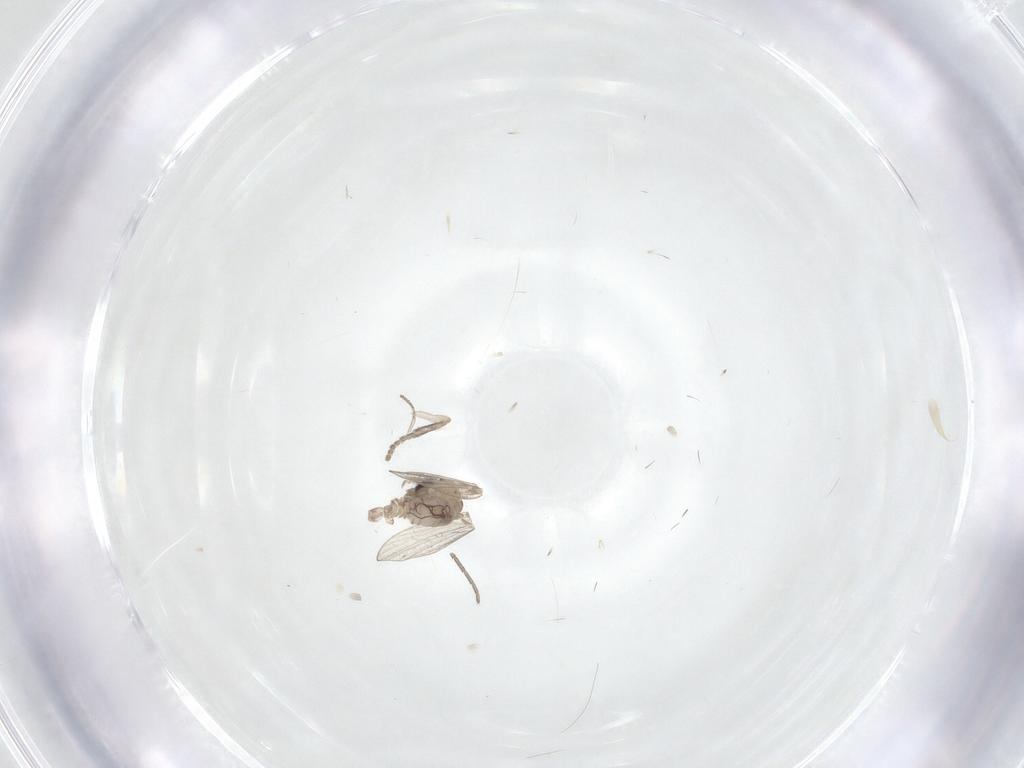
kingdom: Animalia
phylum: Arthropoda
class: Insecta
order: Diptera
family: Psychodidae
